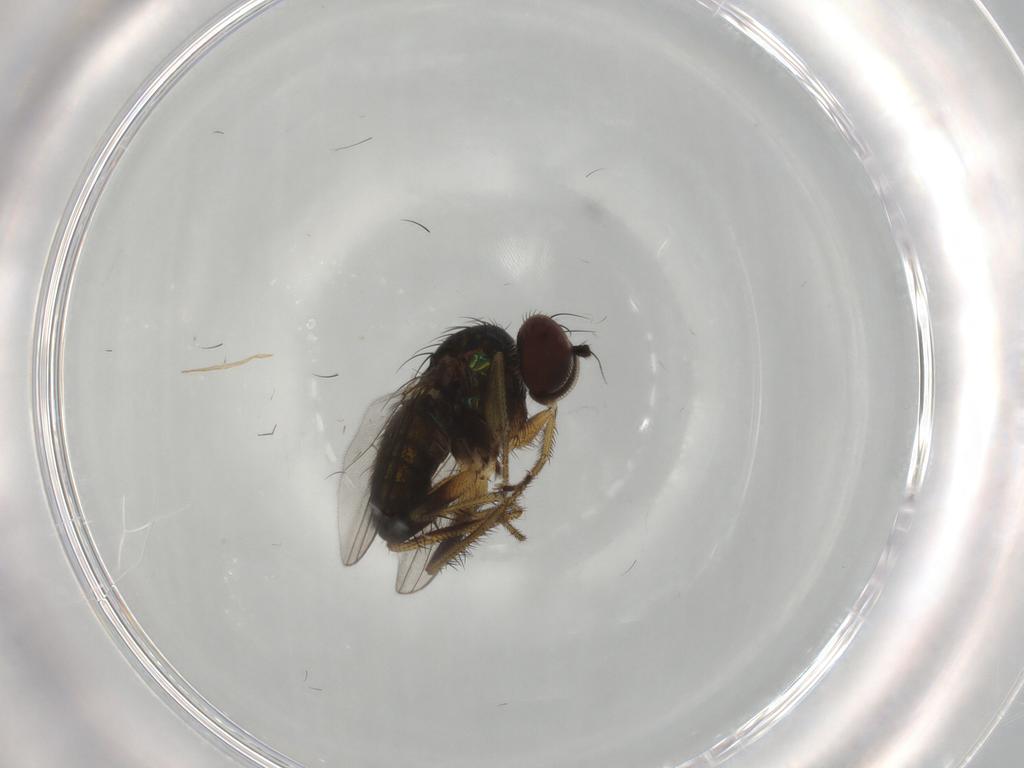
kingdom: Animalia
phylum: Arthropoda
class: Insecta
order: Diptera
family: Dolichopodidae
